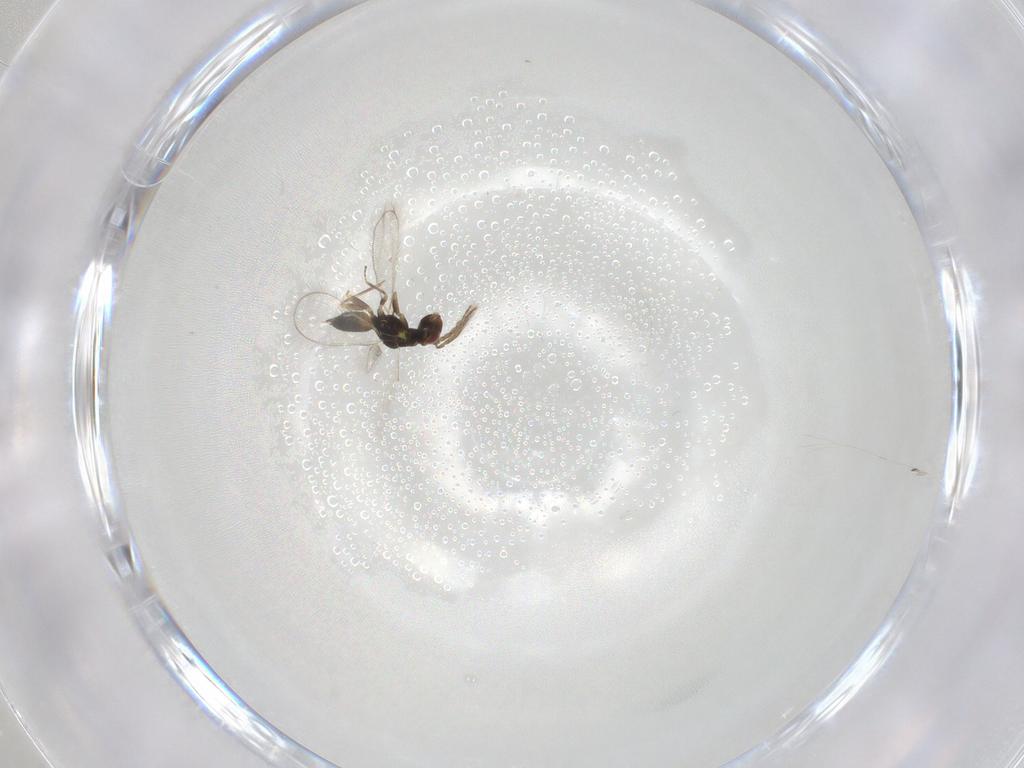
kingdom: Animalia
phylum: Arthropoda
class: Insecta
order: Hymenoptera
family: Eulophidae
